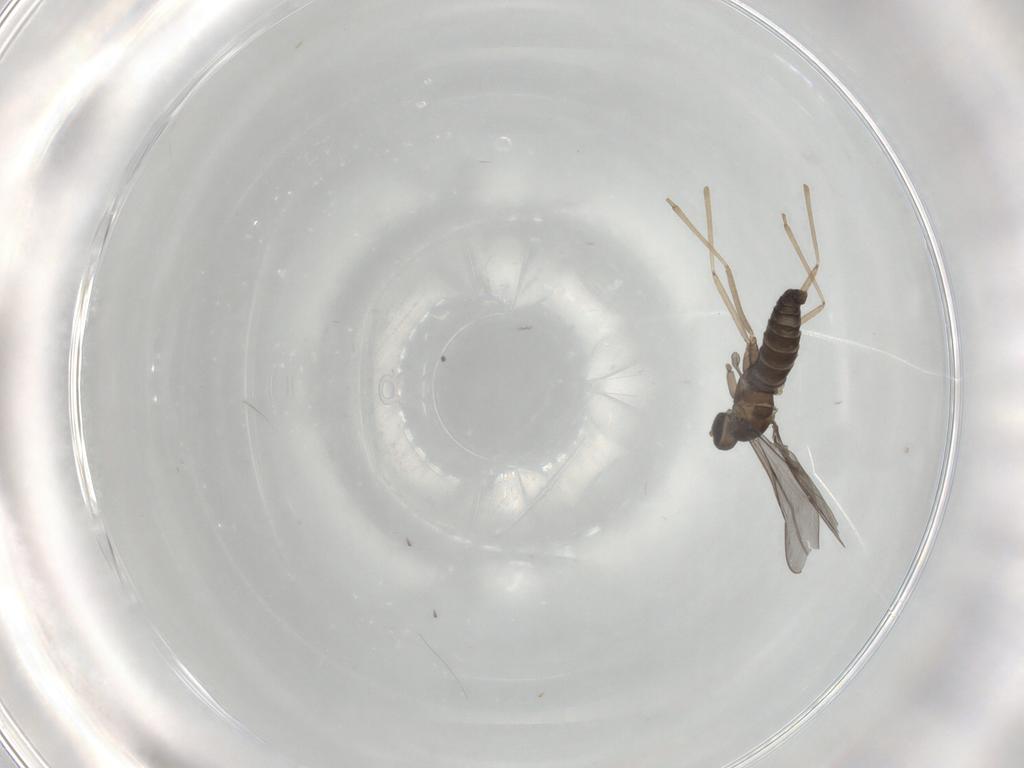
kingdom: Animalia
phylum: Arthropoda
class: Insecta
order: Diptera
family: Cecidomyiidae
